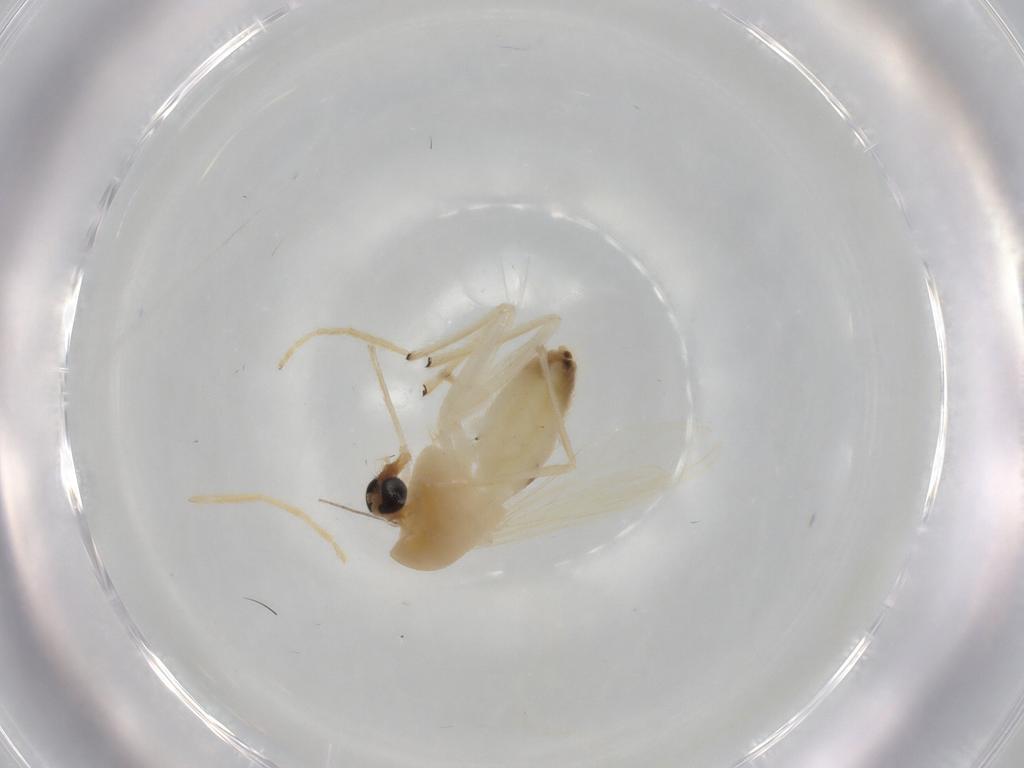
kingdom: Animalia
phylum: Arthropoda
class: Insecta
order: Diptera
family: Chironomidae
